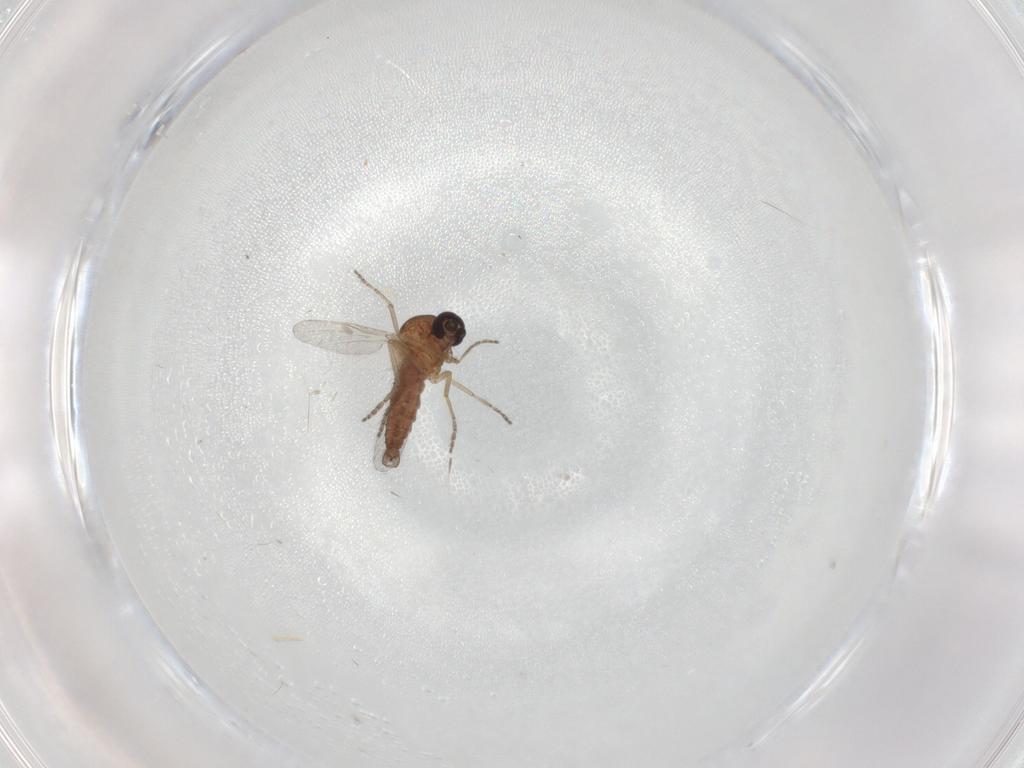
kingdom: Animalia
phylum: Arthropoda
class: Insecta
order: Diptera
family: Ceratopogonidae
